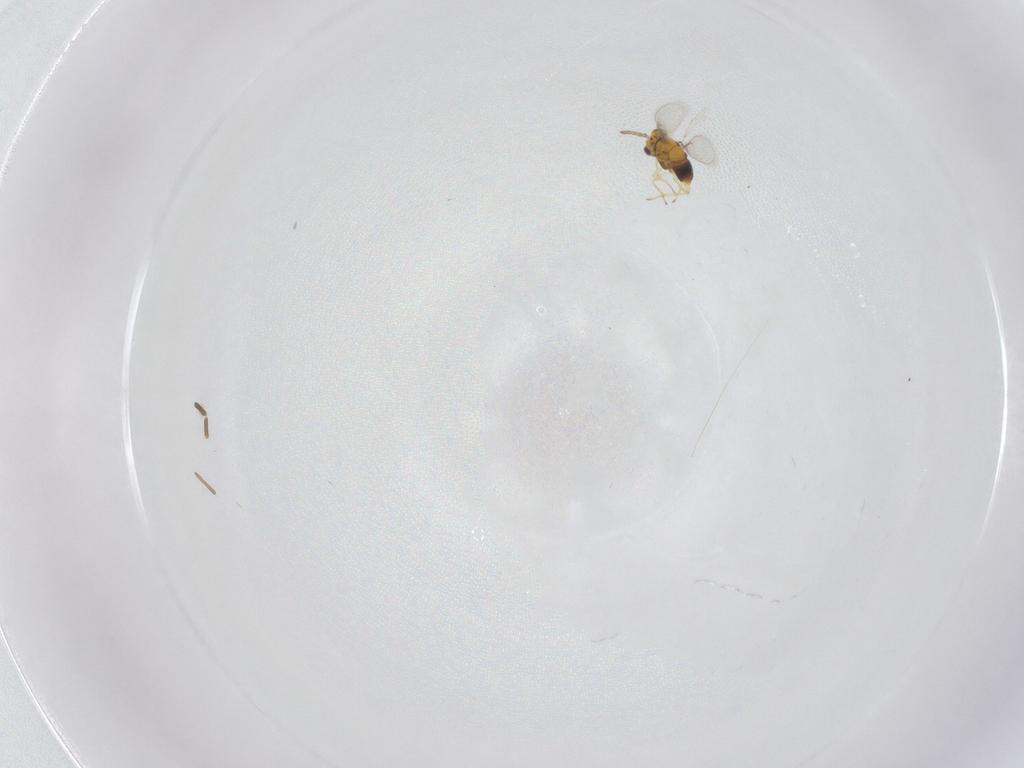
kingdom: Animalia
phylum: Arthropoda
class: Insecta
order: Hymenoptera
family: Aphelinidae
